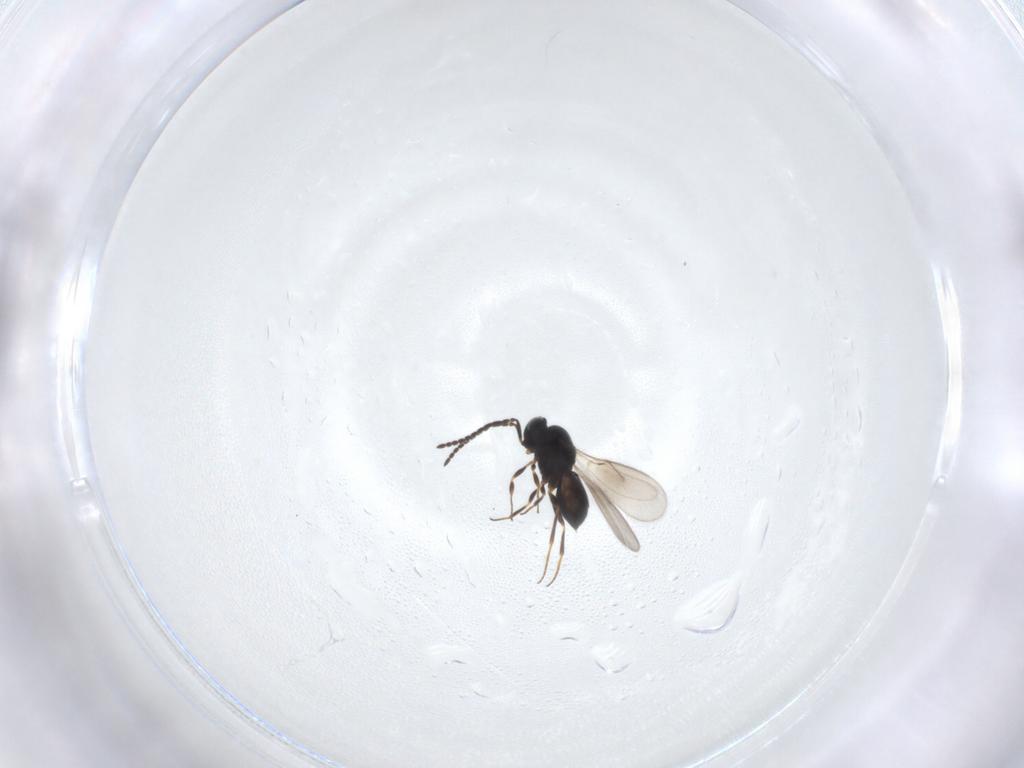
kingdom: Animalia
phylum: Arthropoda
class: Insecta
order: Hymenoptera
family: Scelionidae
